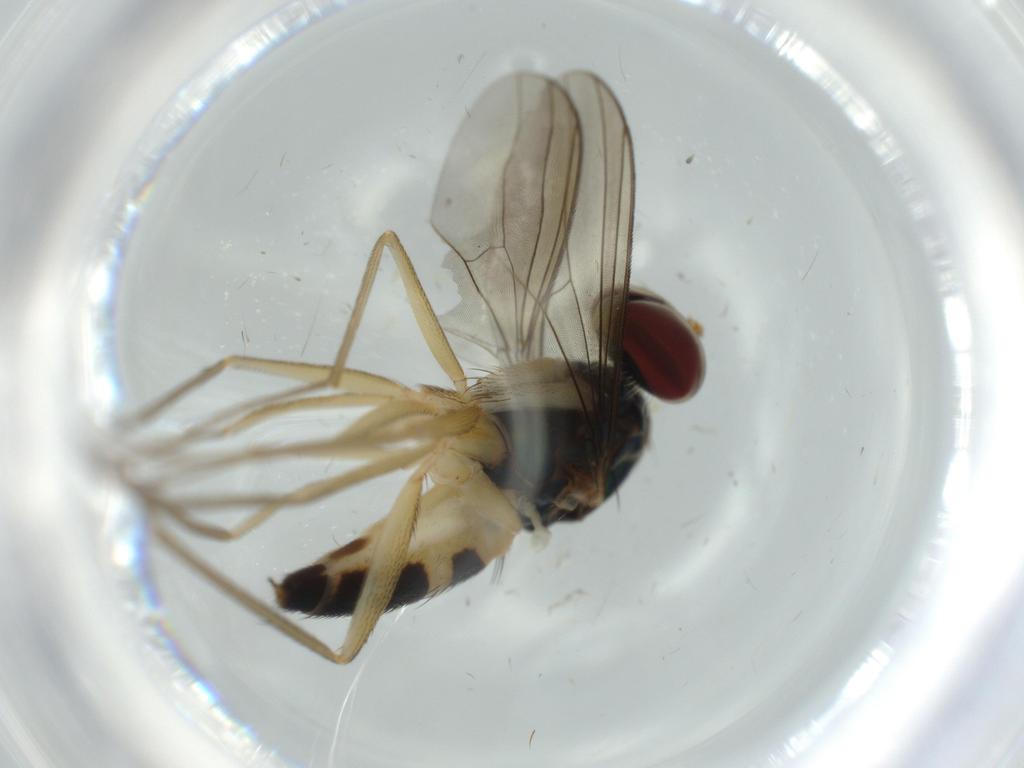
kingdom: Animalia
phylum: Arthropoda
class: Insecta
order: Diptera
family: Dolichopodidae
